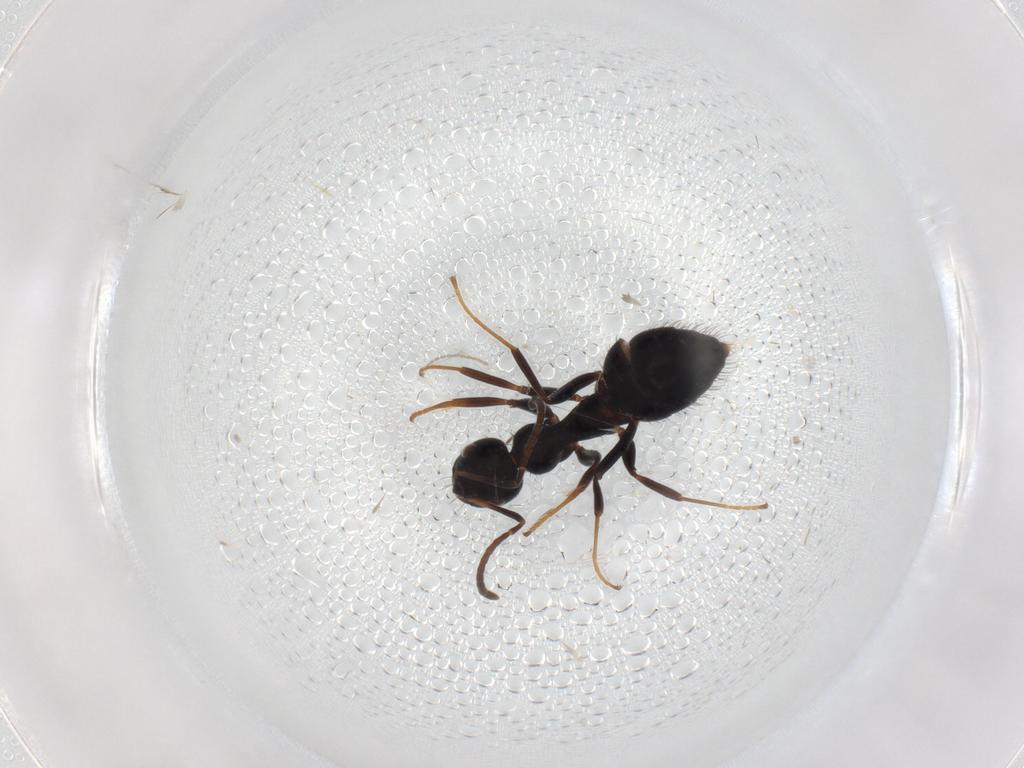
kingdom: Animalia
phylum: Arthropoda
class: Insecta
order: Hymenoptera
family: Formicidae
